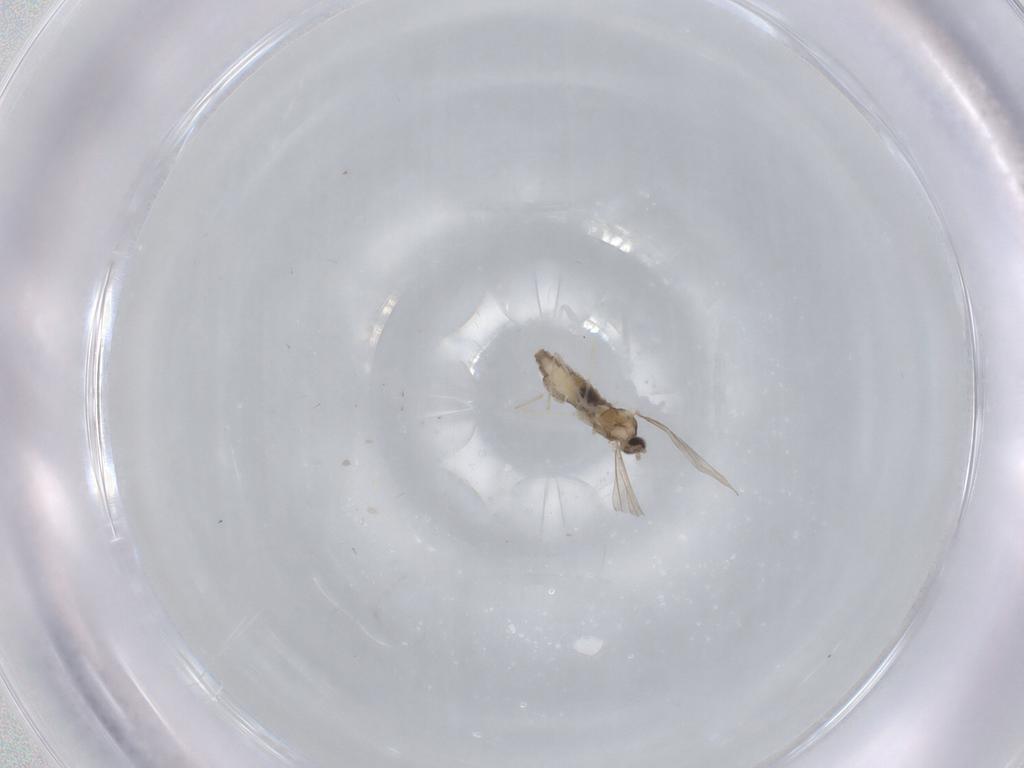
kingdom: Animalia
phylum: Arthropoda
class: Insecta
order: Diptera
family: Cecidomyiidae
